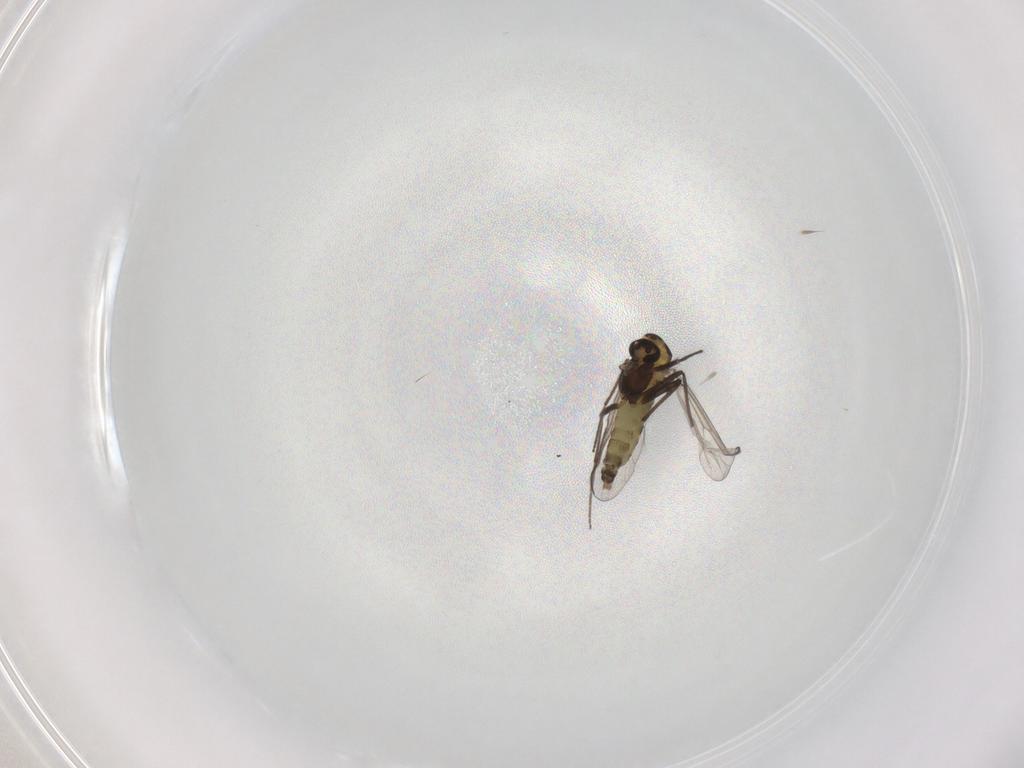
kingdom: Animalia
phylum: Arthropoda
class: Insecta
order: Diptera
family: Chironomidae
